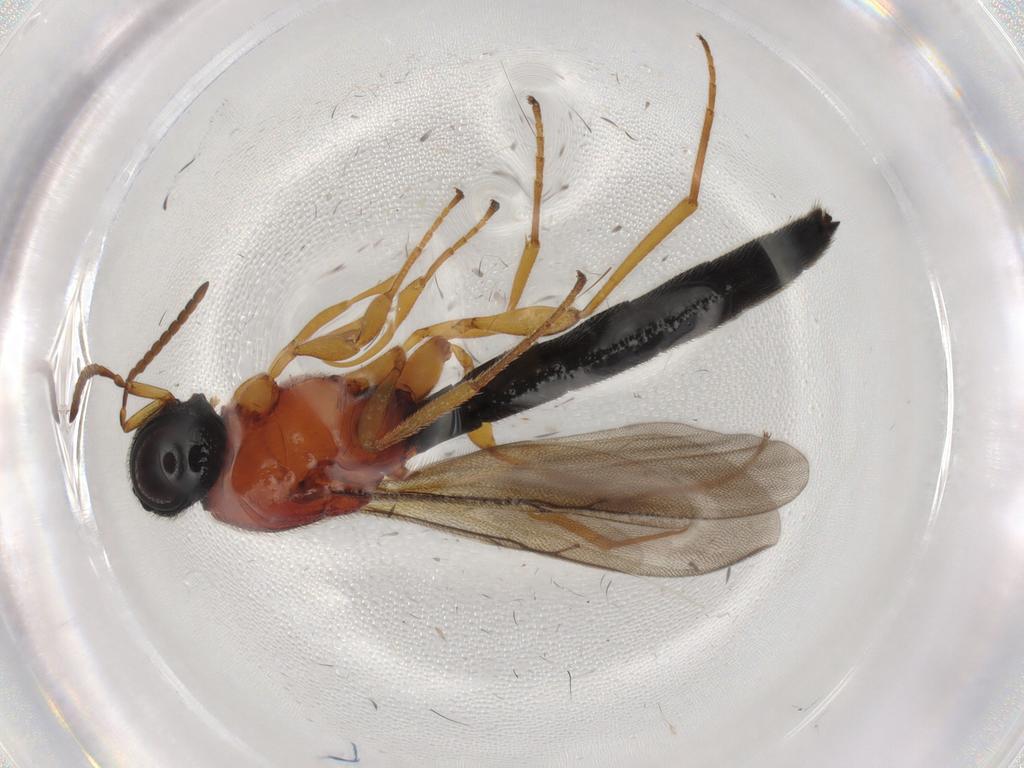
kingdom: Animalia
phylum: Arthropoda
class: Insecta
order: Hymenoptera
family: Scelionidae
